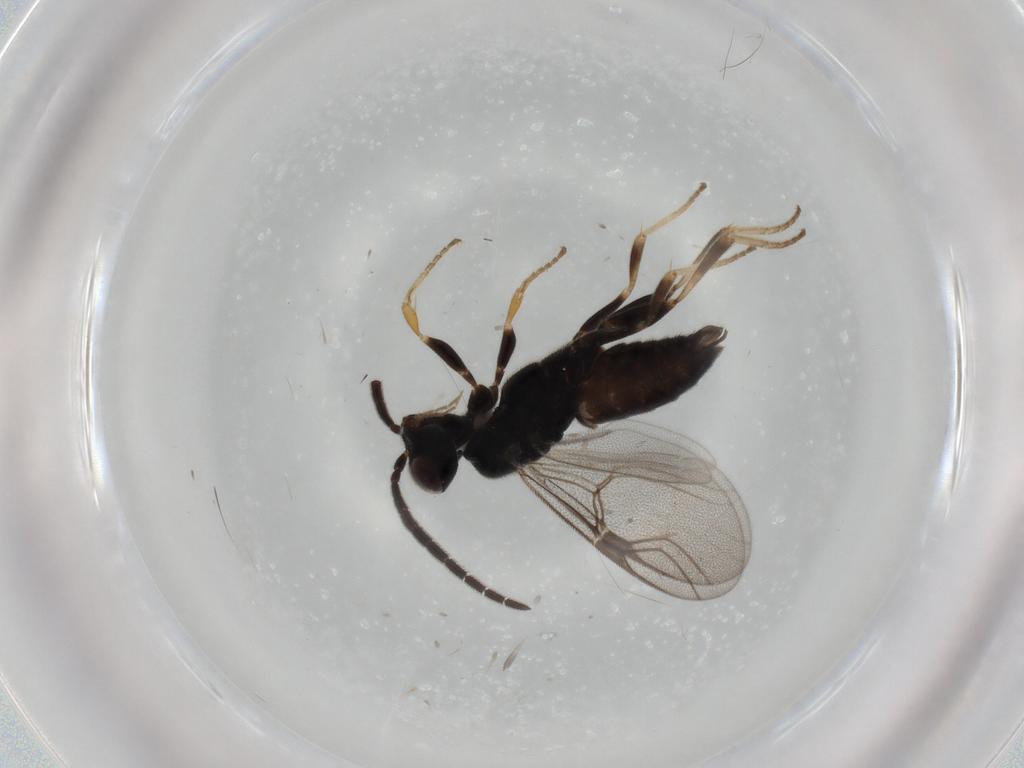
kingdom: Animalia
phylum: Arthropoda
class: Insecta
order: Hymenoptera
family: Dryinidae
